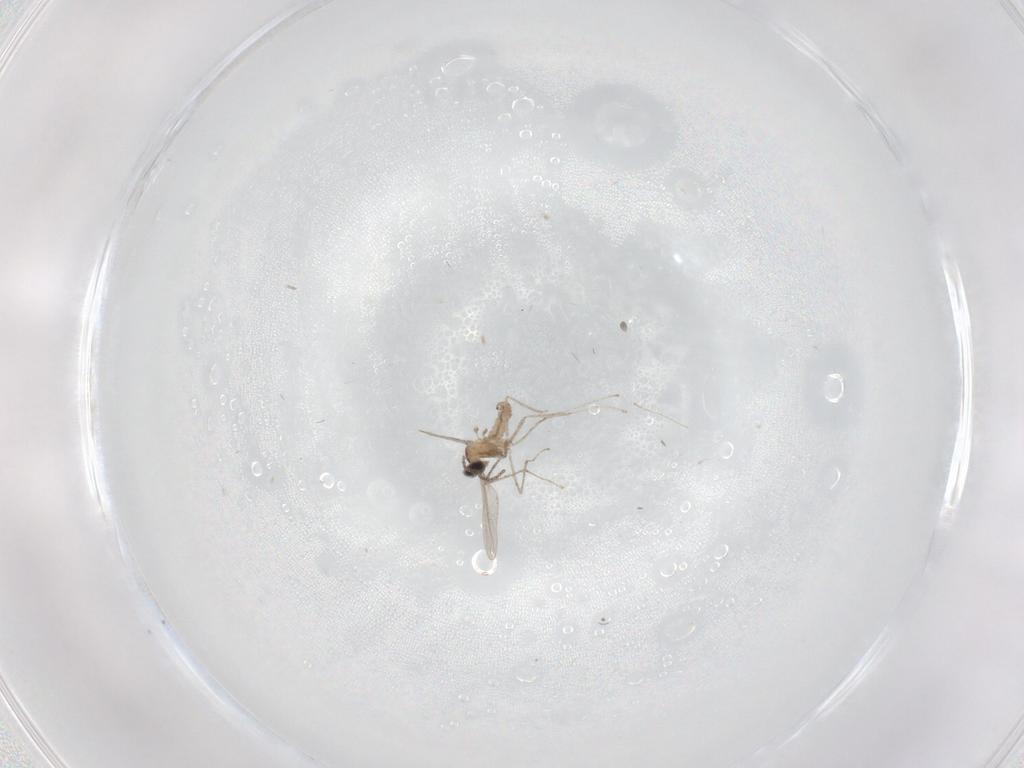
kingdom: Animalia
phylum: Arthropoda
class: Insecta
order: Diptera
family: Cecidomyiidae
